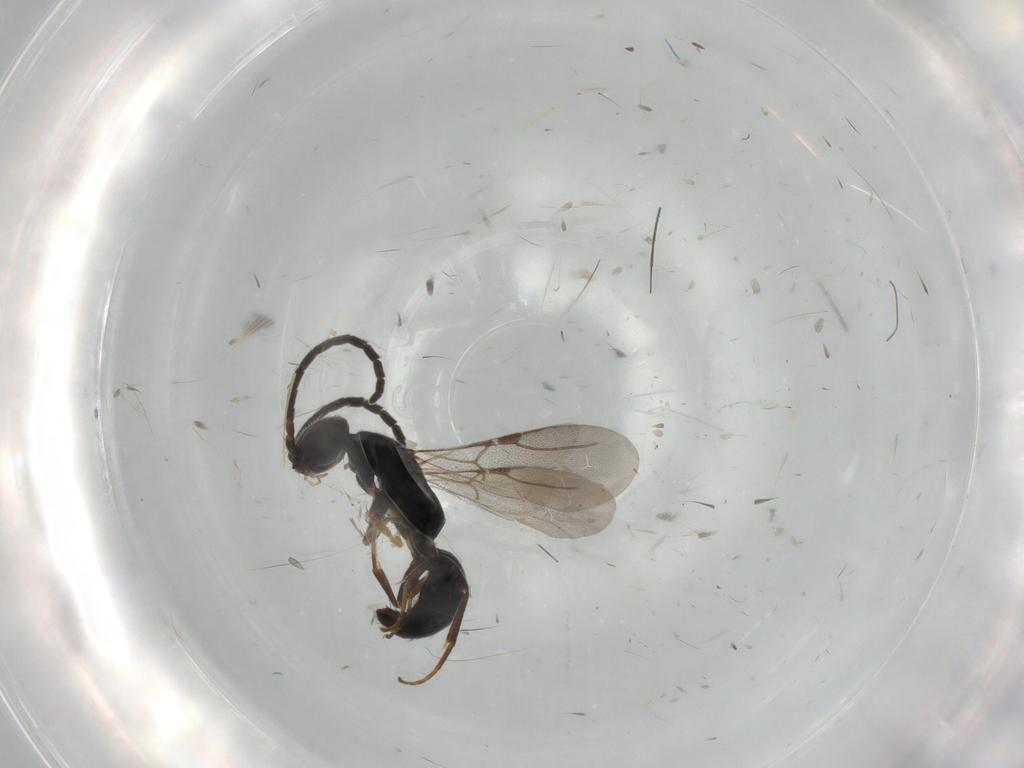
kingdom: Animalia
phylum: Arthropoda
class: Insecta
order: Hymenoptera
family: Bethylidae
